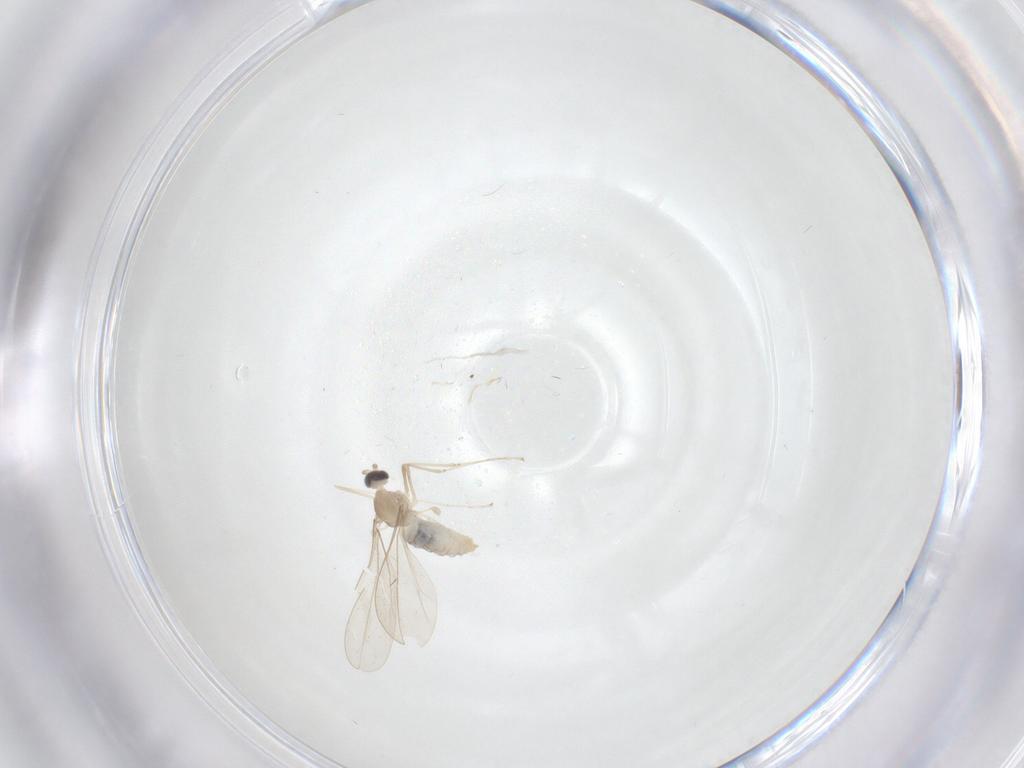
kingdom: Animalia
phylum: Arthropoda
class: Insecta
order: Diptera
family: Cecidomyiidae
